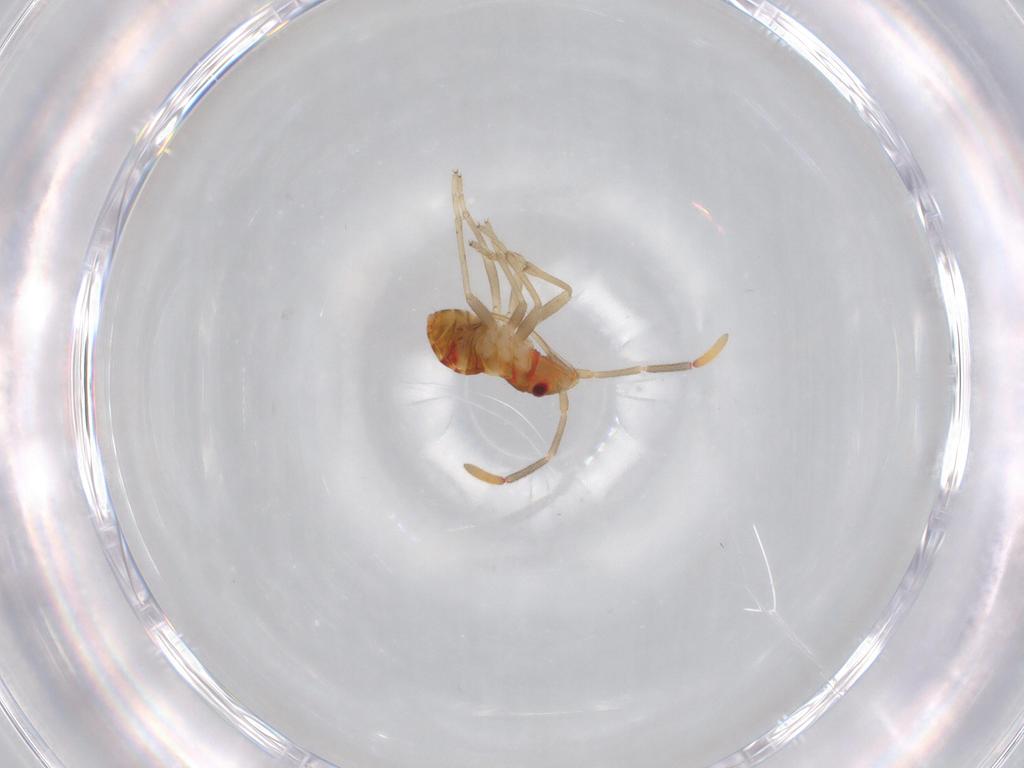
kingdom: Animalia
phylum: Arthropoda
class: Insecta
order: Hemiptera
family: Rhyparochromidae
